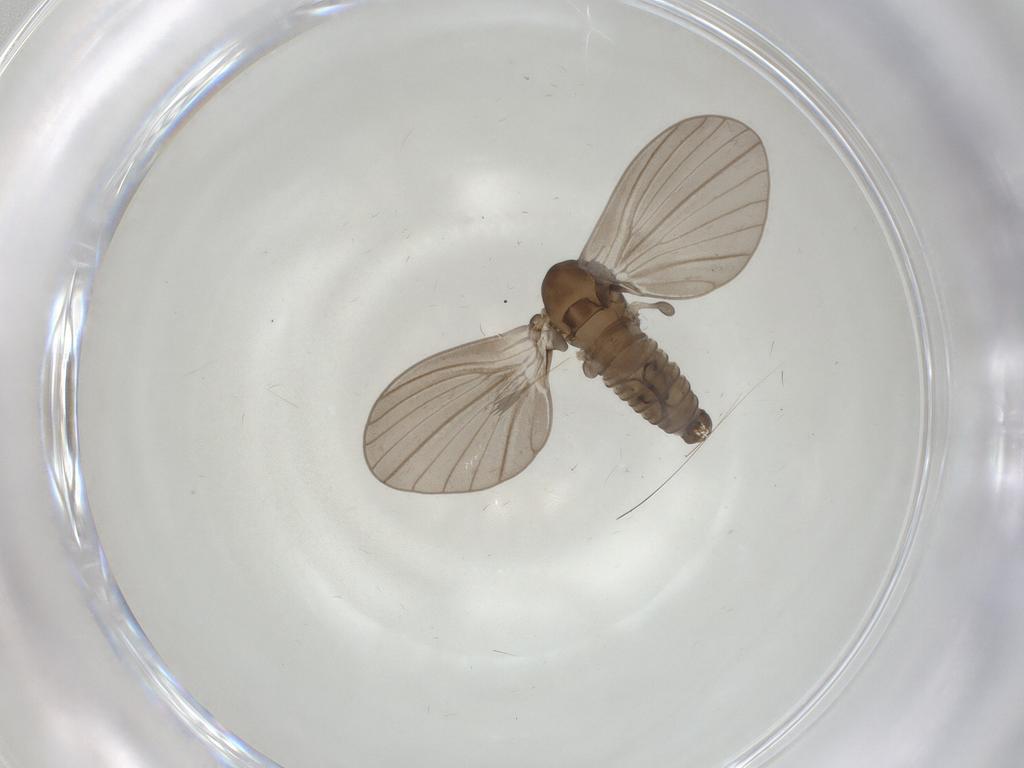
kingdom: Animalia
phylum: Arthropoda
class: Insecta
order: Diptera
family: Psychodidae
